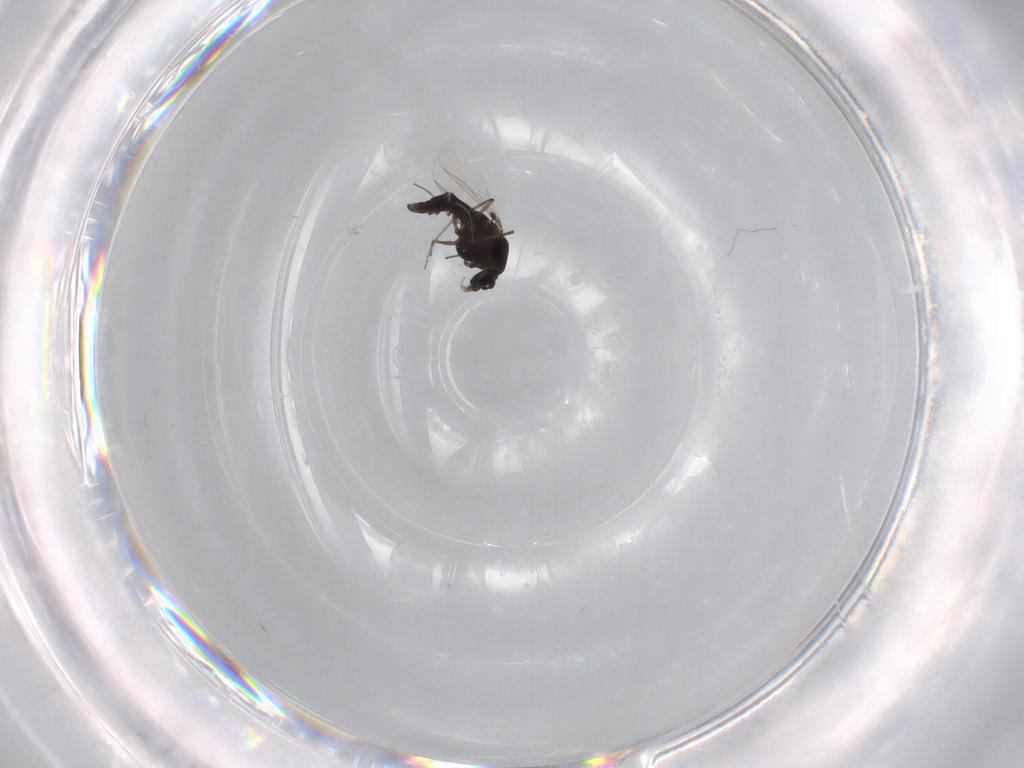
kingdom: Animalia
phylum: Arthropoda
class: Insecta
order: Diptera
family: Chironomidae
